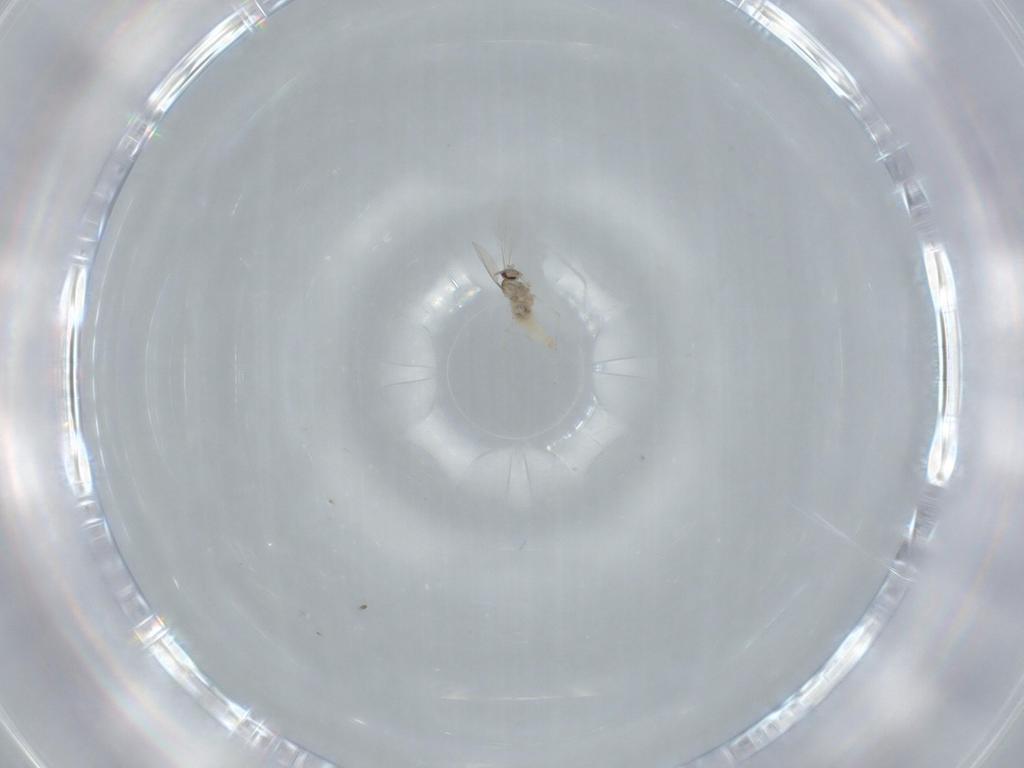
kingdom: Animalia
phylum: Arthropoda
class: Insecta
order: Diptera
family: Cecidomyiidae
